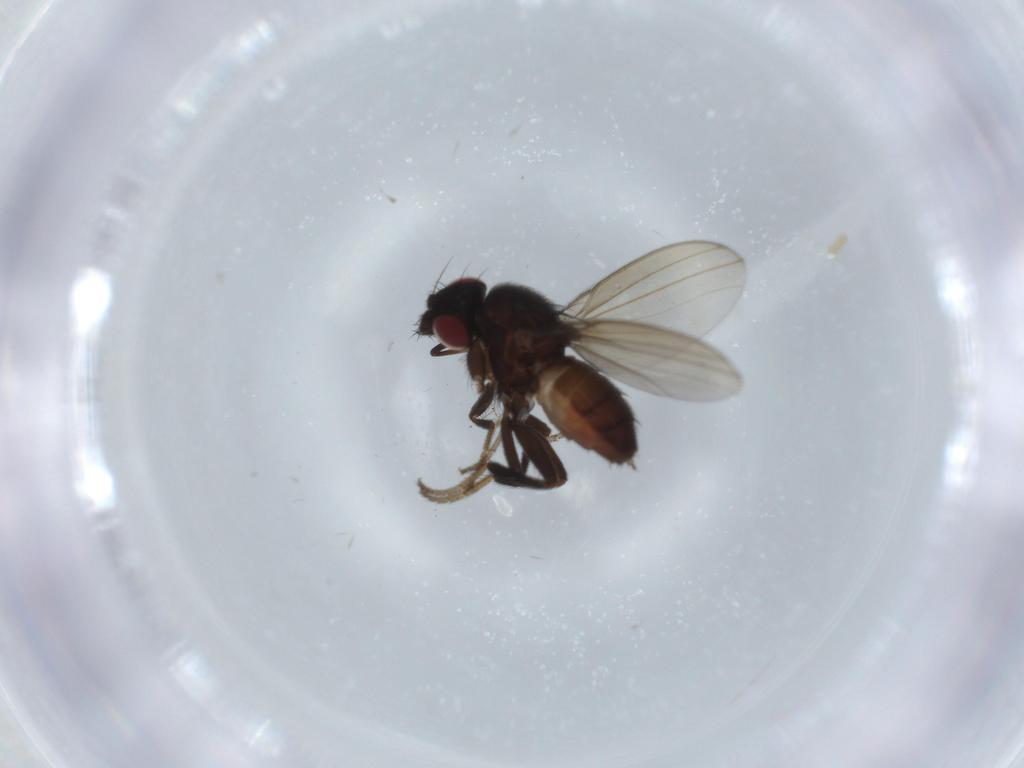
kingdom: Animalia
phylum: Arthropoda
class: Insecta
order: Diptera
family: Milichiidae
